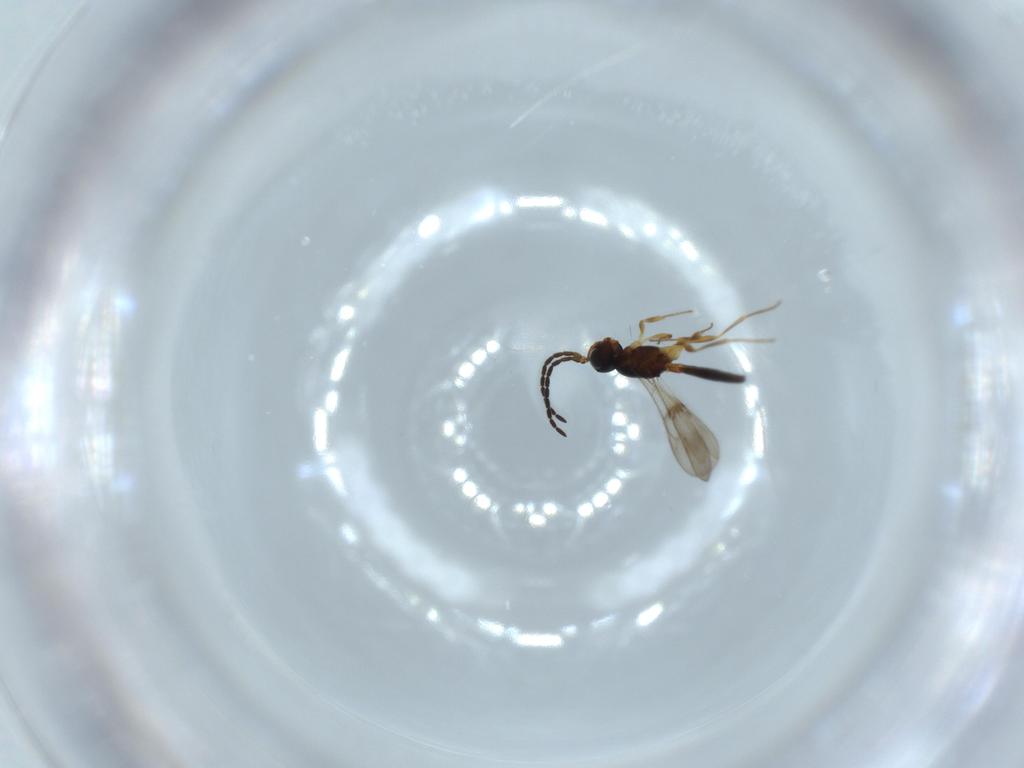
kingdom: Animalia
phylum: Arthropoda
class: Insecta
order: Hymenoptera
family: Scelionidae
